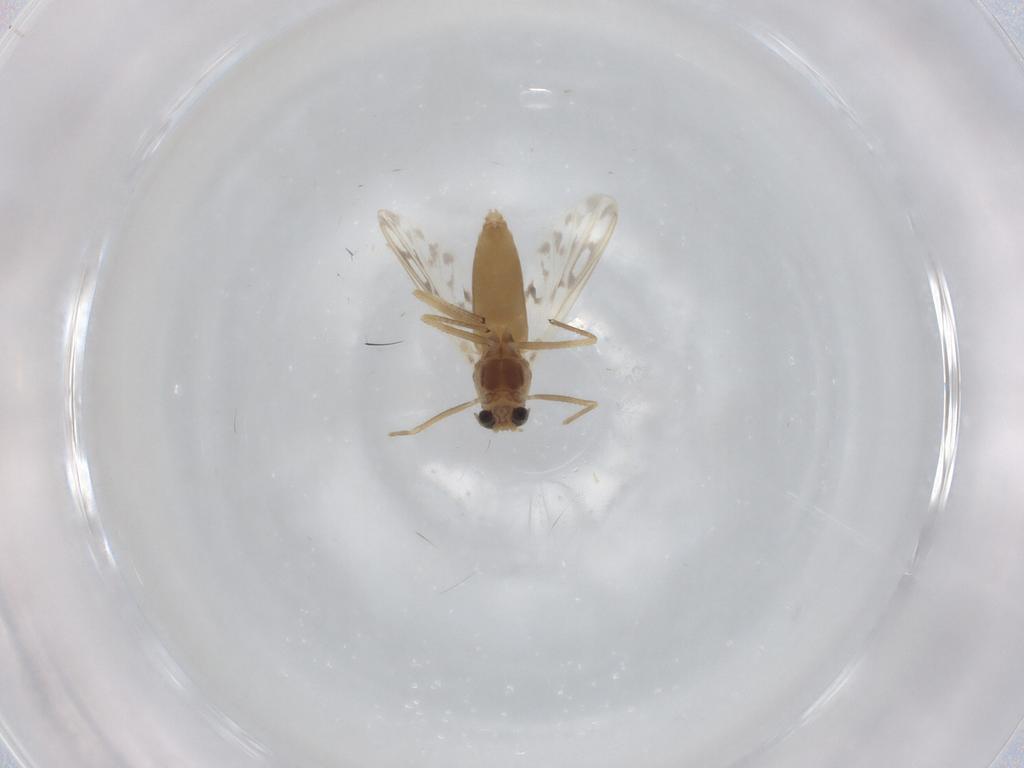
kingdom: Animalia
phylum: Arthropoda
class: Insecta
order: Diptera
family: Chironomidae
